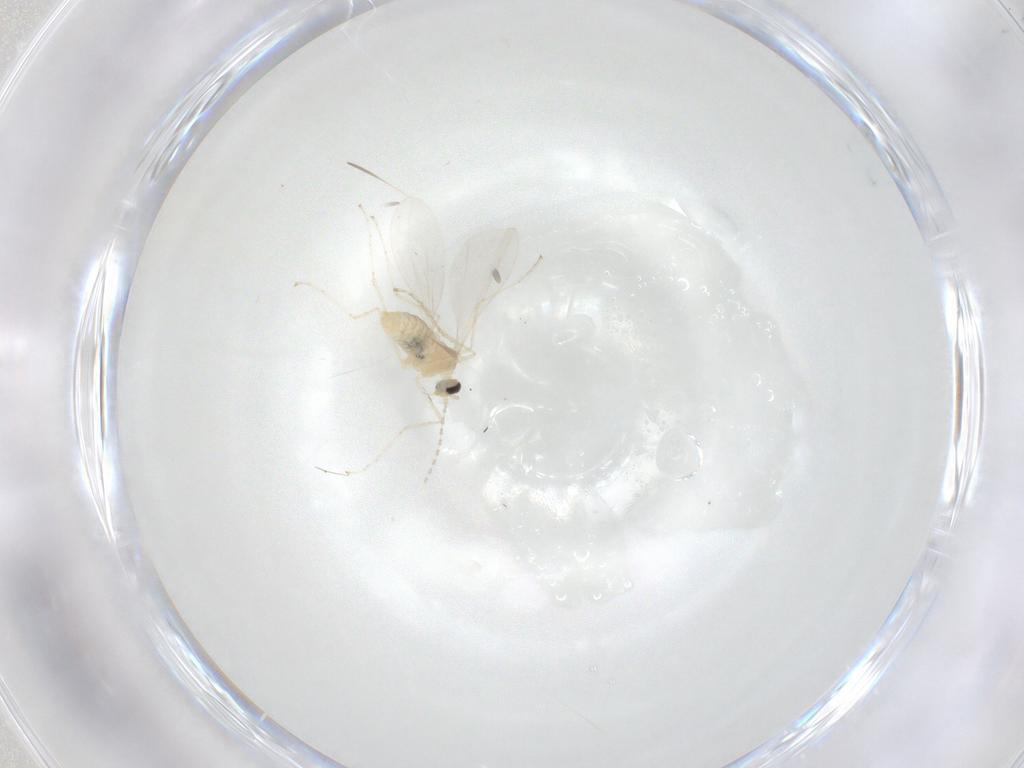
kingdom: Animalia
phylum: Arthropoda
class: Insecta
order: Diptera
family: Cecidomyiidae
